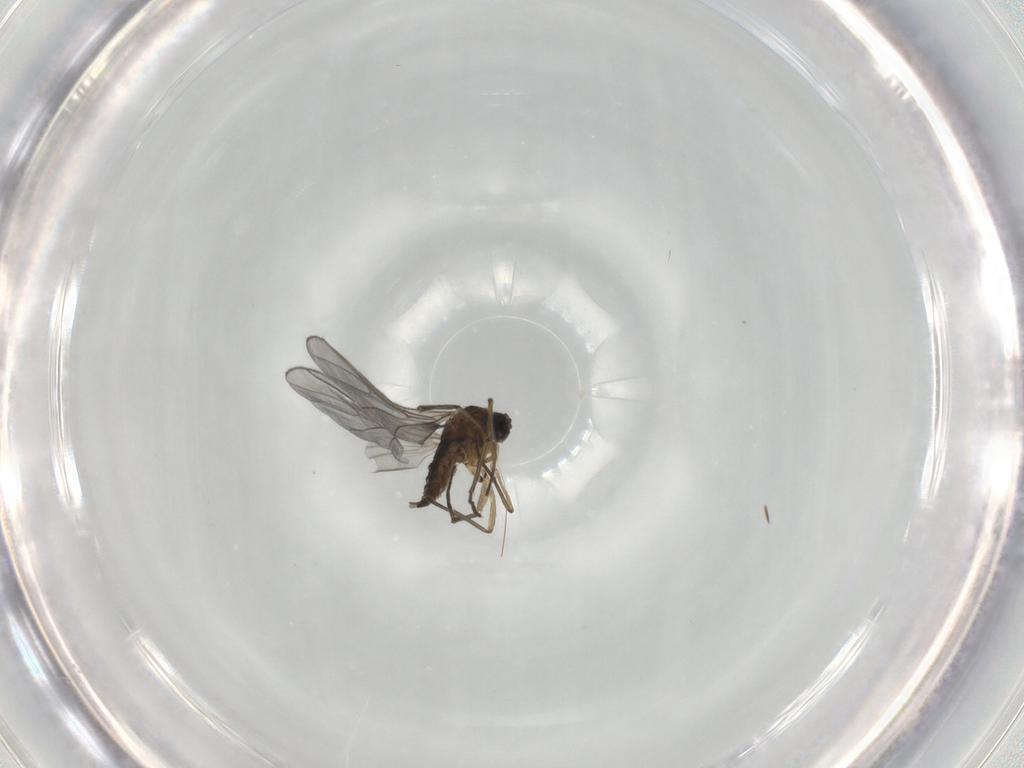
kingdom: Animalia
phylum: Arthropoda
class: Insecta
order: Diptera
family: Sciaridae
